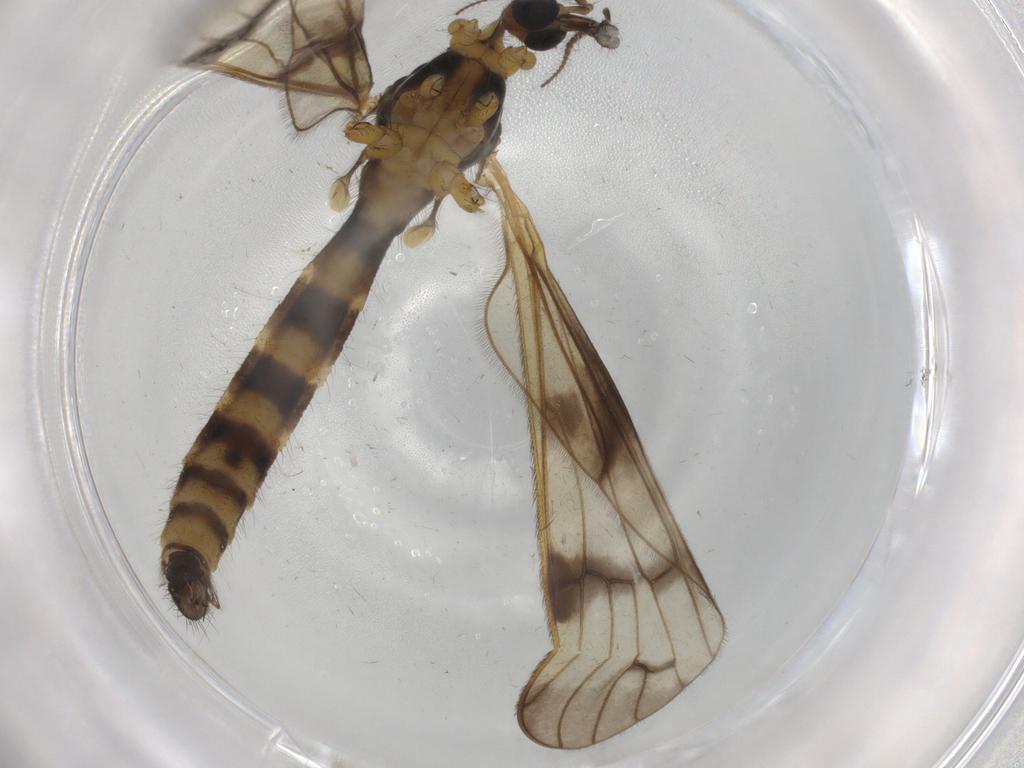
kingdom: Animalia
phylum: Arthropoda
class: Insecta
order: Diptera
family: Limoniidae
